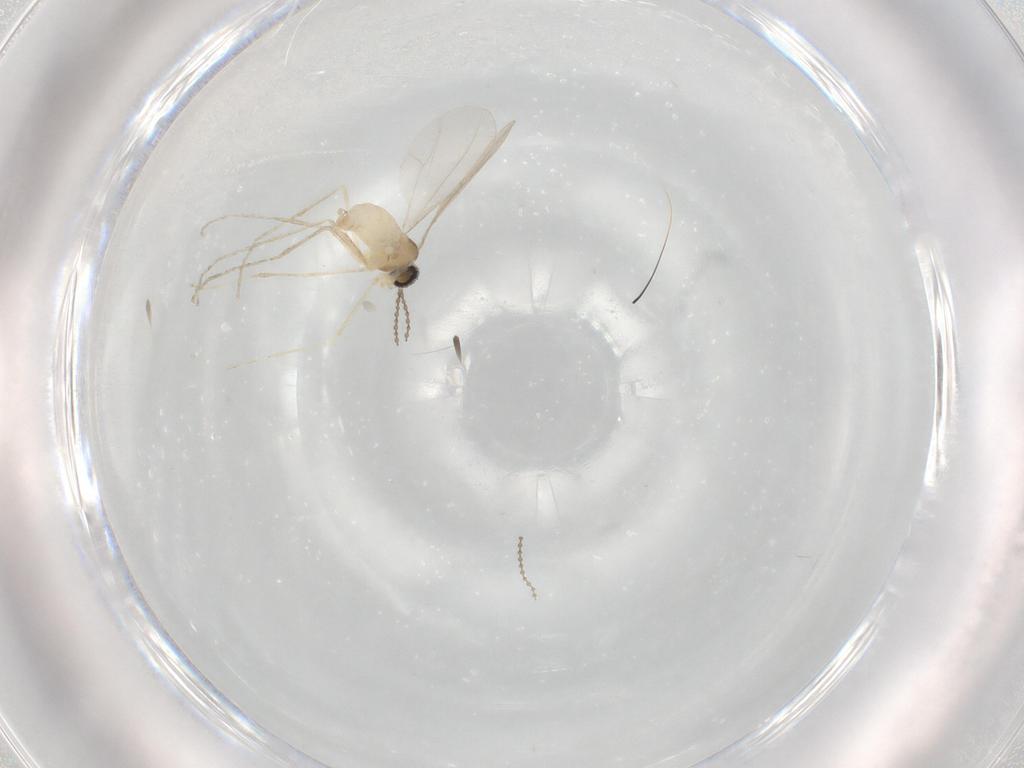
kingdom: Animalia
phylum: Arthropoda
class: Insecta
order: Diptera
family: Cecidomyiidae
